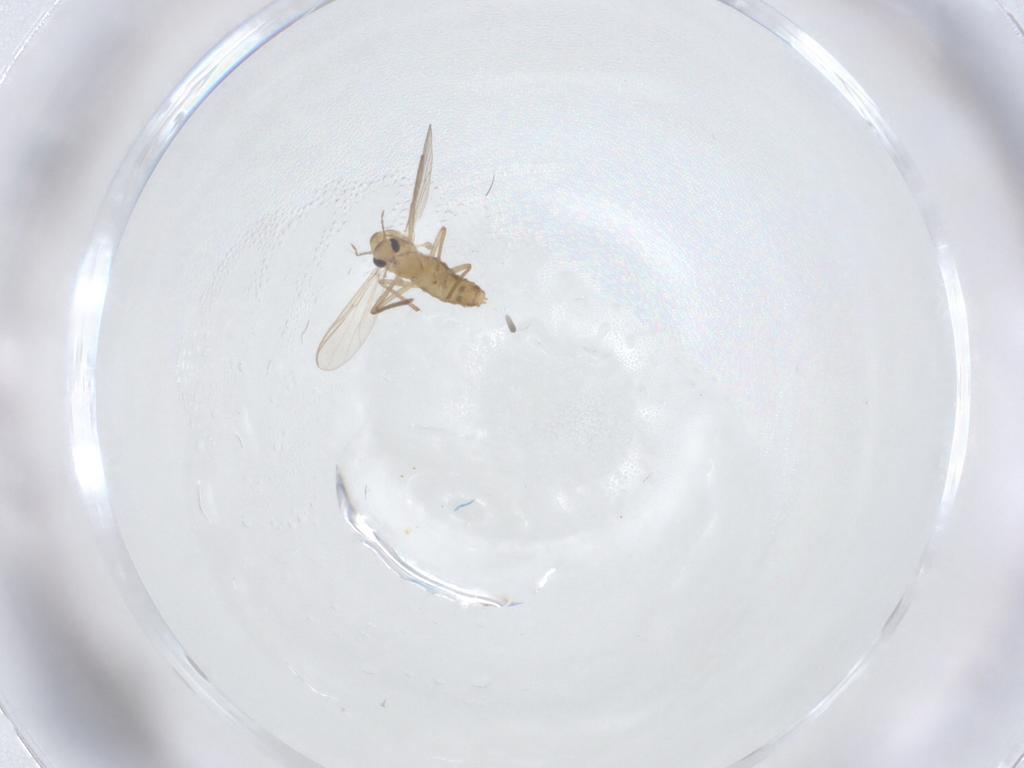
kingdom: Animalia
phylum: Arthropoda
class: Insecta
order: Diptera
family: Chironomidae
